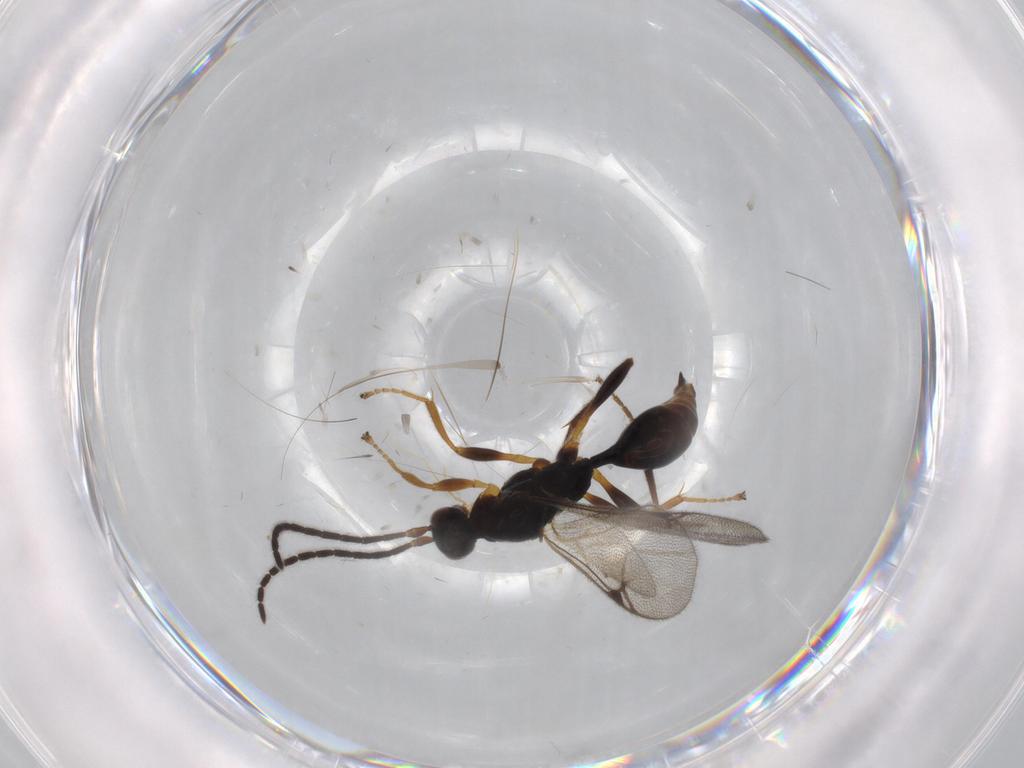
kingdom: Animalia
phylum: Arthropoda
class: Insecta
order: Hymenoptera
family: Proctotrupidae
